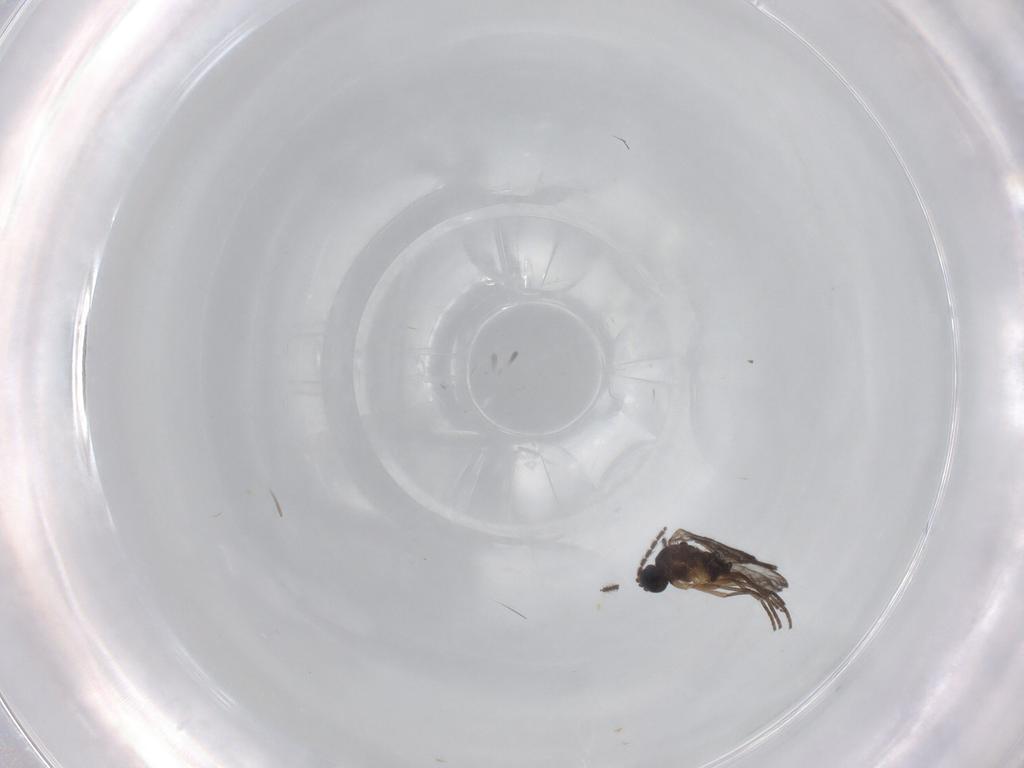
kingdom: Animalia
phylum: Arthropoda
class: Insecta
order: Diptera
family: Sciaridae
